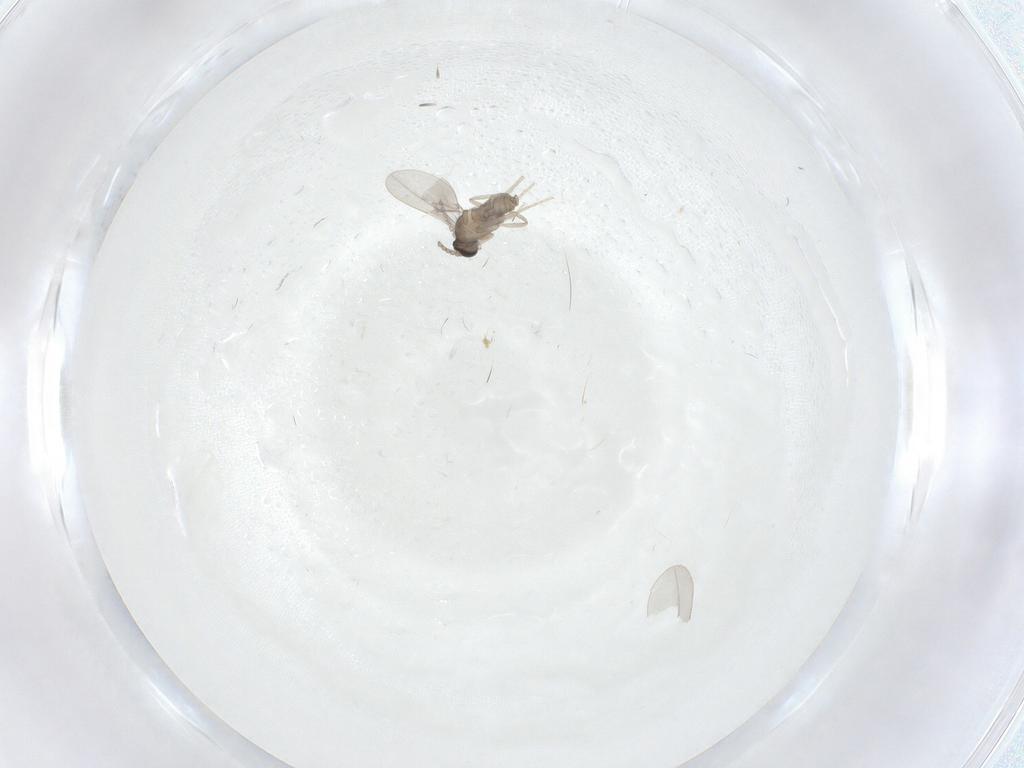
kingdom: Animalia
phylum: Arthropoda
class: Insecta
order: Diptera
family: Cecidomyiidae
